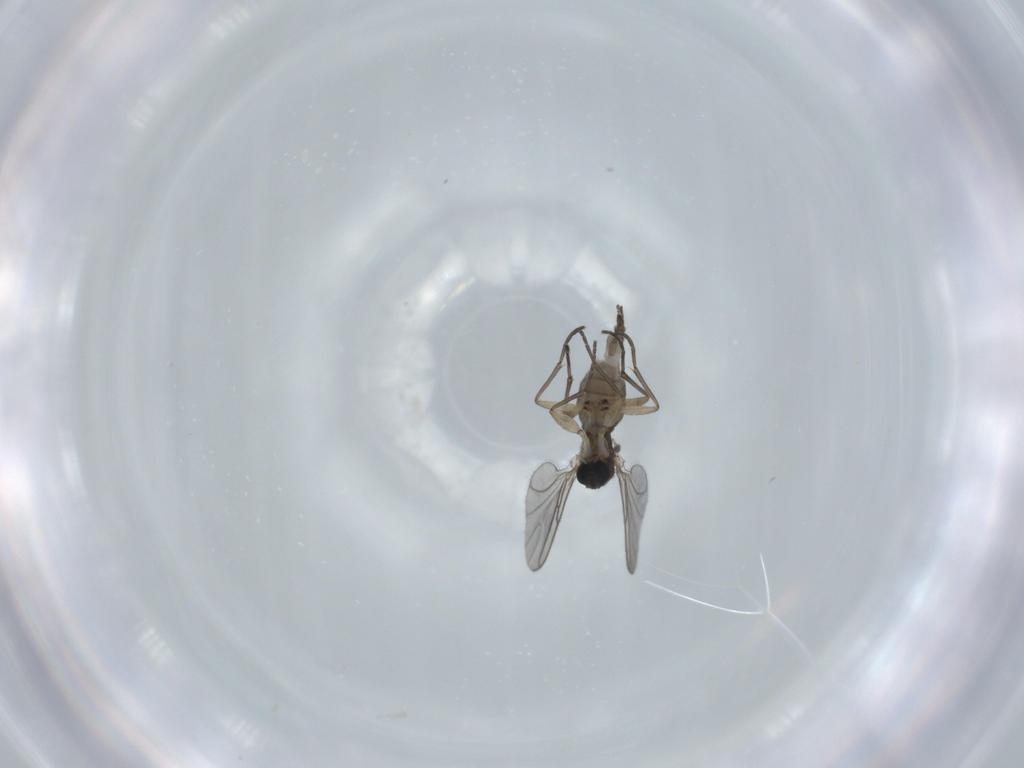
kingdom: Animalia
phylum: Arthropoda
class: Insecta
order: Diptera
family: Sciaridae
